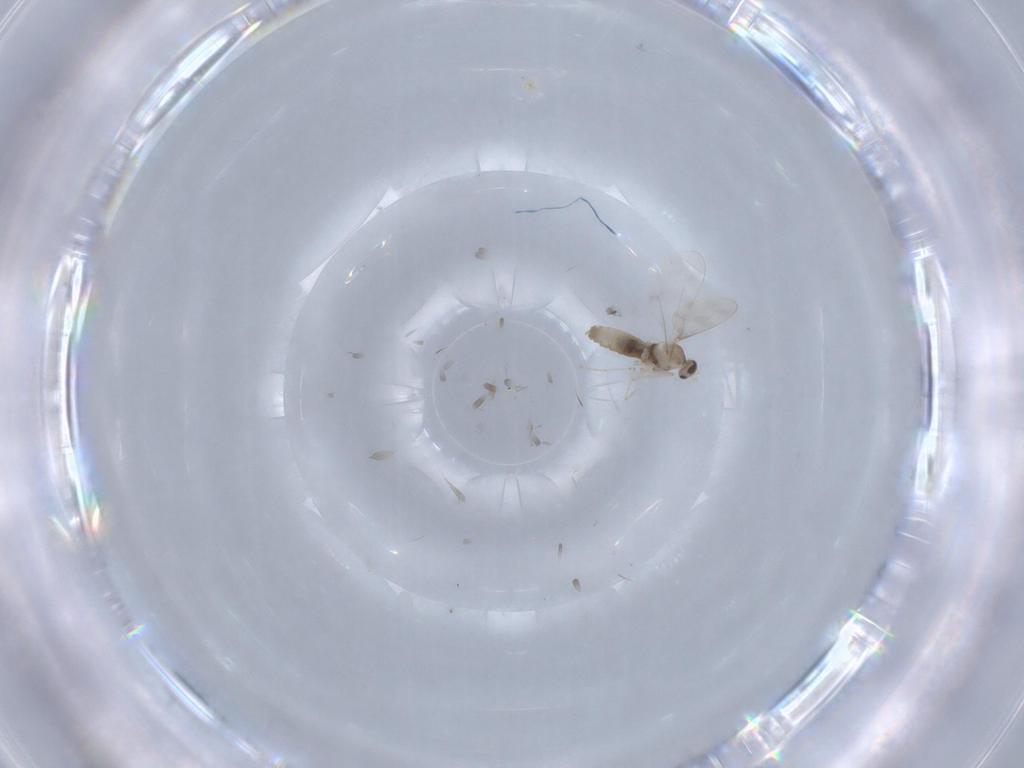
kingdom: Animalia
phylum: Arthropoda
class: Insecta
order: Diptera
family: Cecidomyiidae
